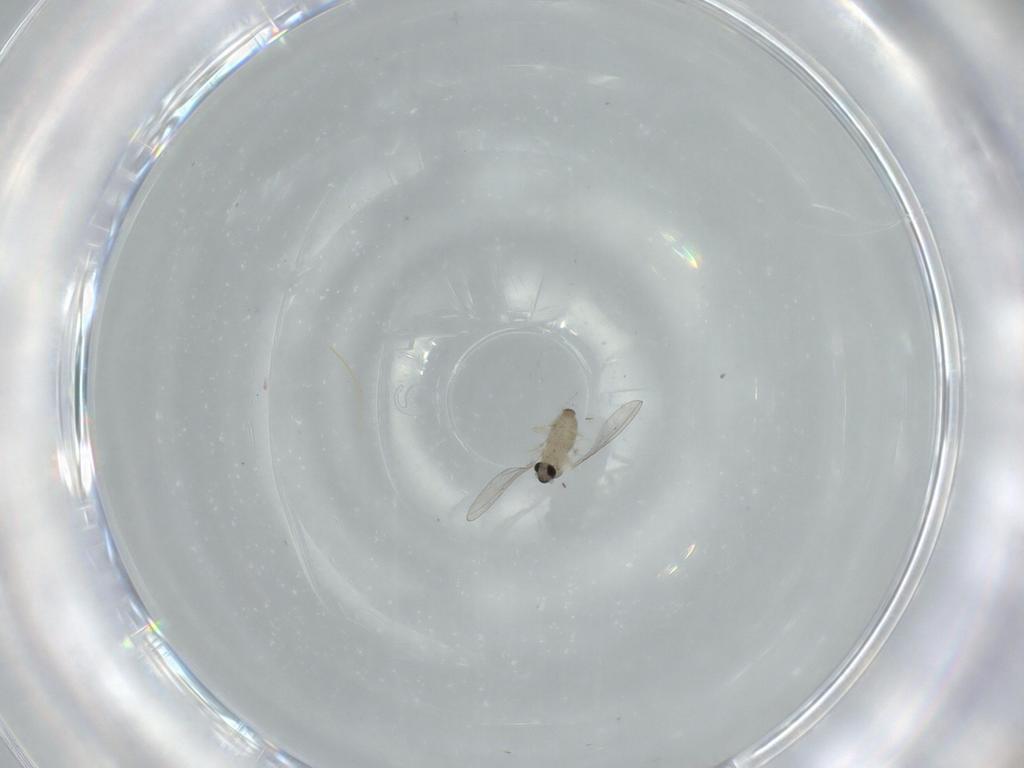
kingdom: Animalia
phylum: Arthropoda
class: Insecta
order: Diptera
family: Cecidomyiidae
